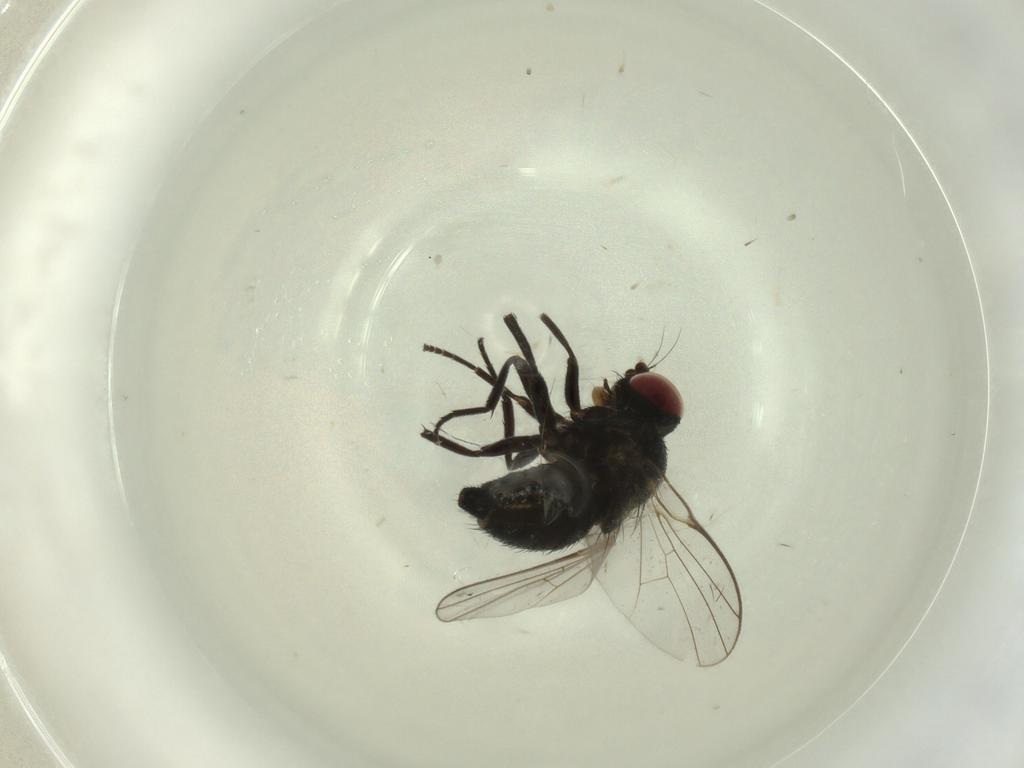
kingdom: Animalia
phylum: Arthropoda
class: Insecta
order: Diptera
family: Agromyzidae
